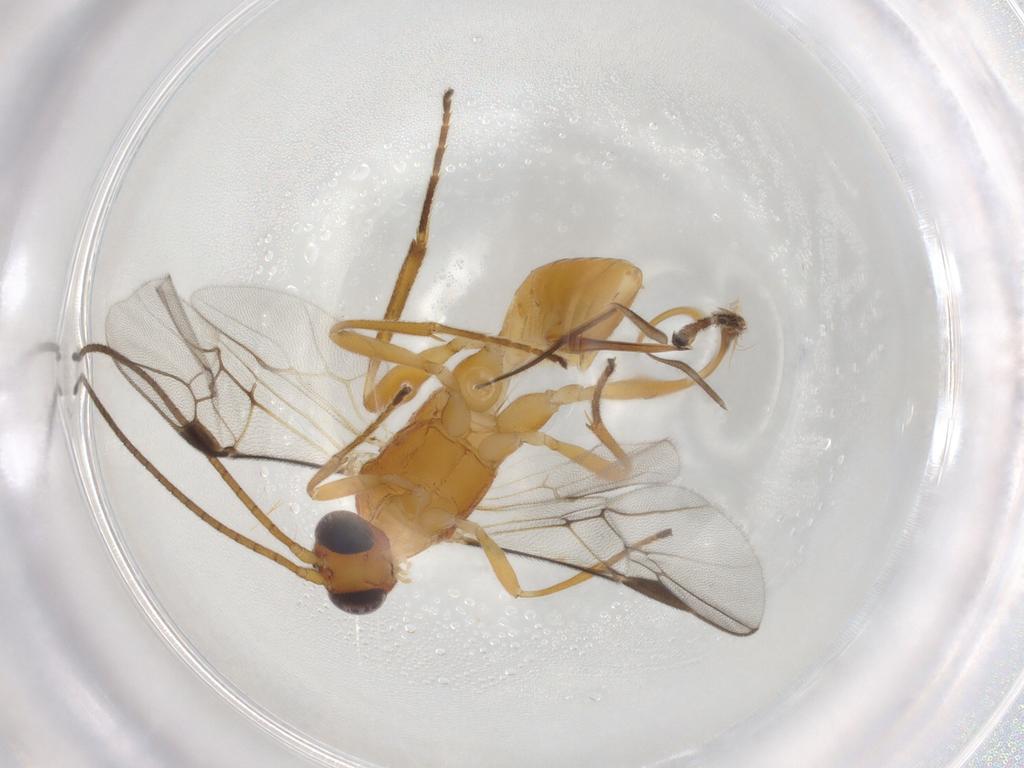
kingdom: Animalia
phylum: Arthropoda
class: Insecta
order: Hymenoptera
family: Braconidae
